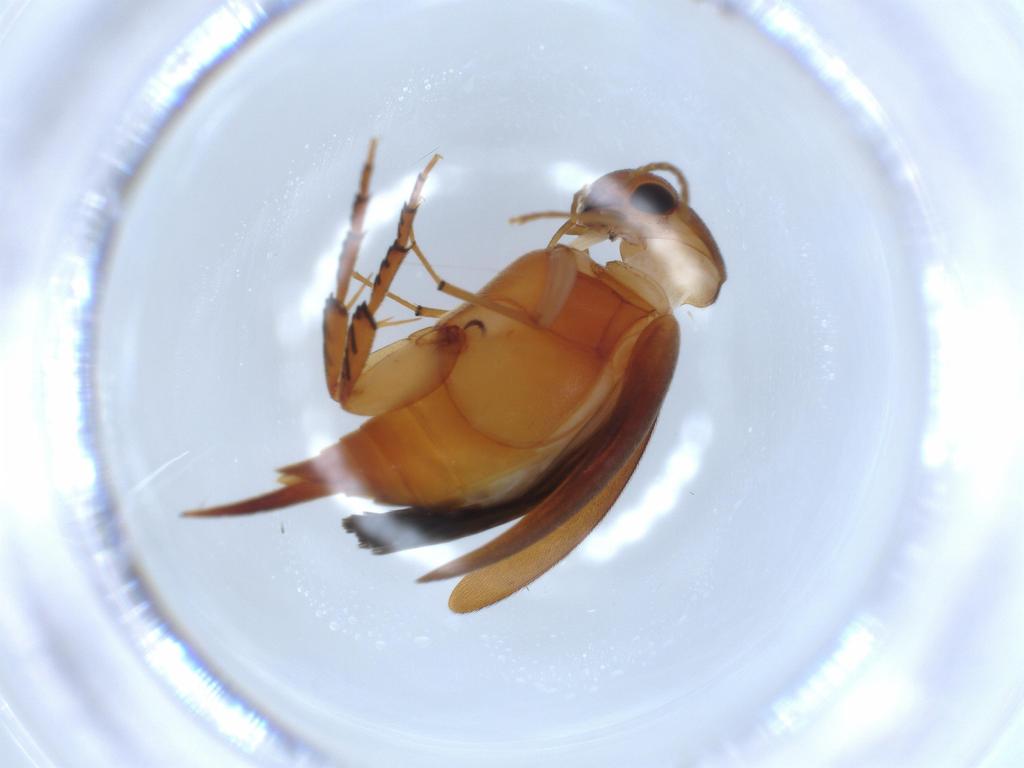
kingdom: Animalia
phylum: Arthropoda
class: Insecta
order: Coleoptera
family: Mordellidae
